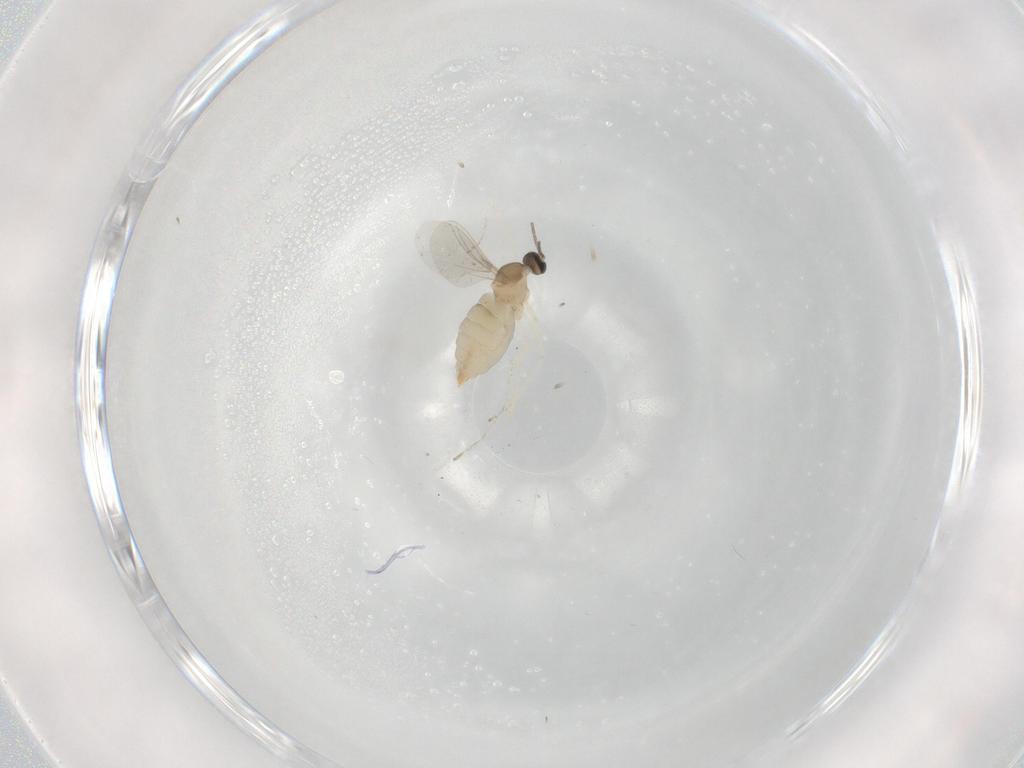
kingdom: Animalia
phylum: Arthropoda
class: Insecta
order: Diptera
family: Cecidomyiidae
